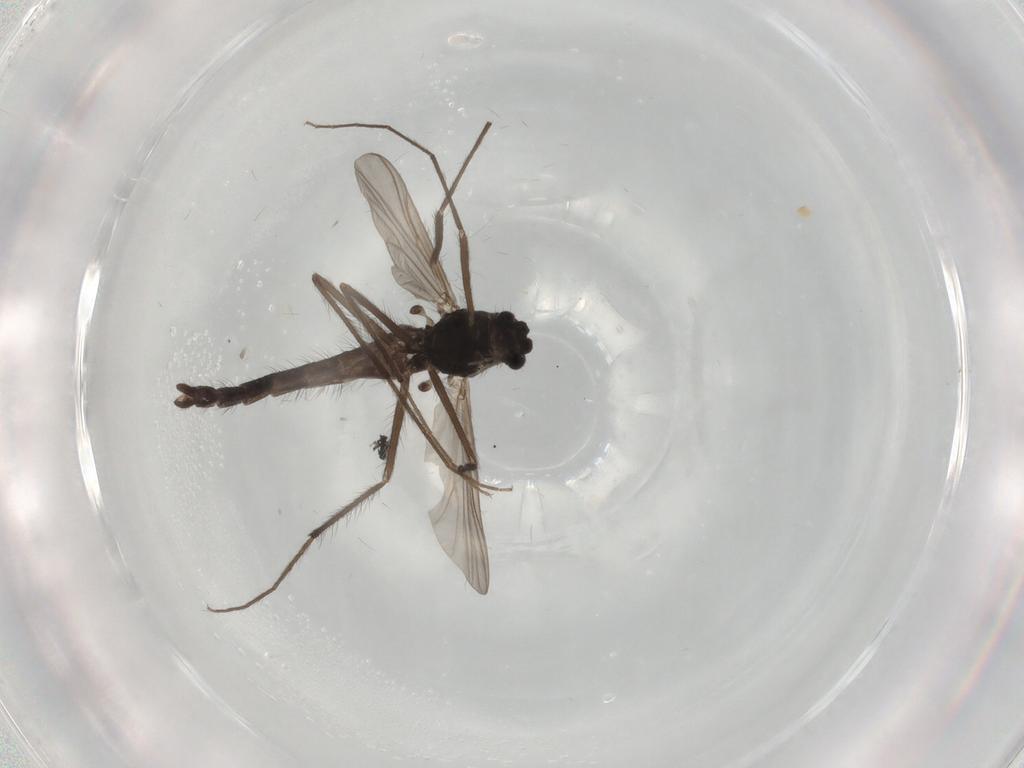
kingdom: Animalia
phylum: Arthropoda
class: Insecta
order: Diptera
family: Chironomidae
